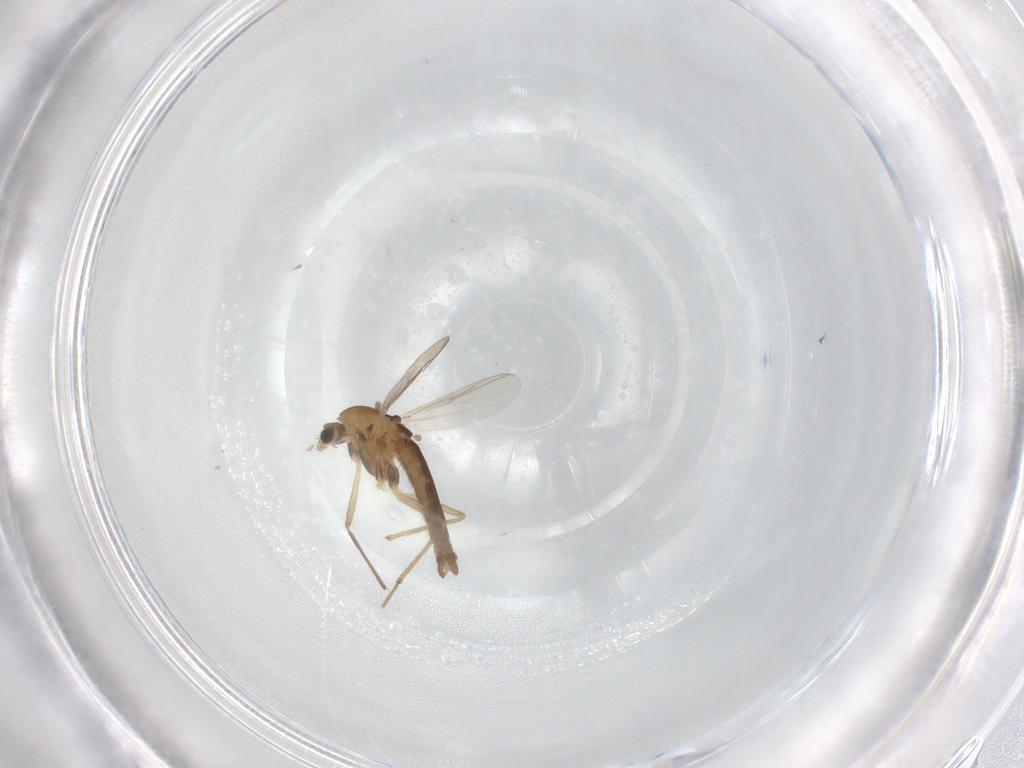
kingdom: Animalia
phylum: Arthropoda
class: Insecta
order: Diptera
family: Chironomidae
